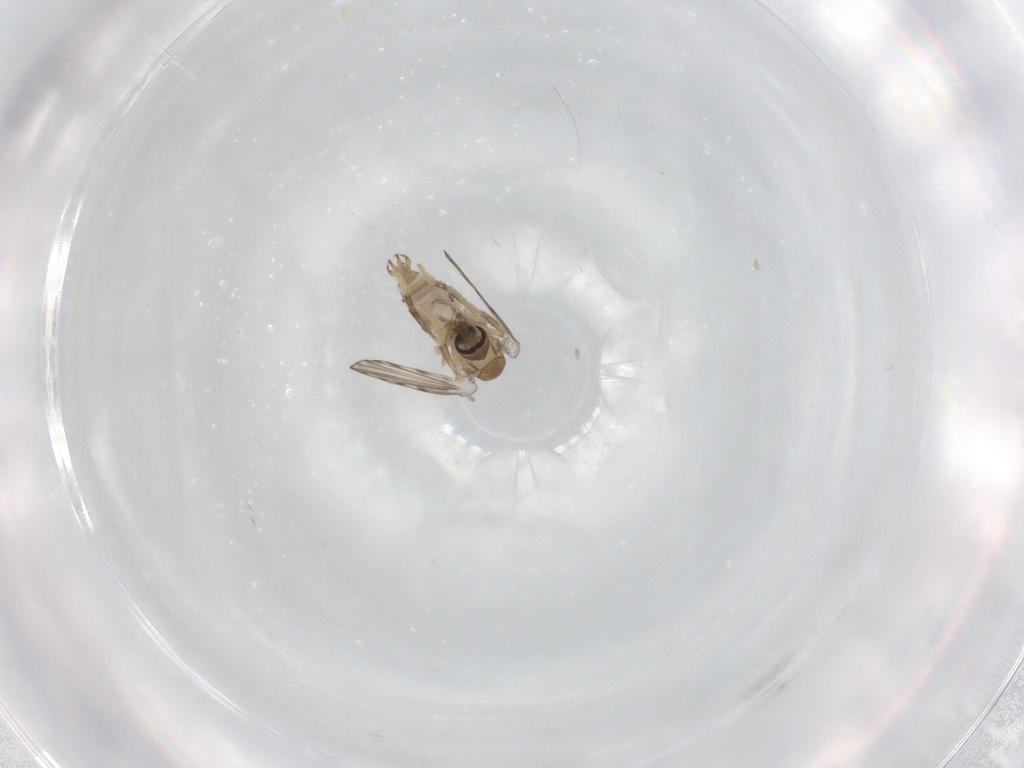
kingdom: Animalia
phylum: Arthropoda
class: Insecta
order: Diptera
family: Psychodidae
